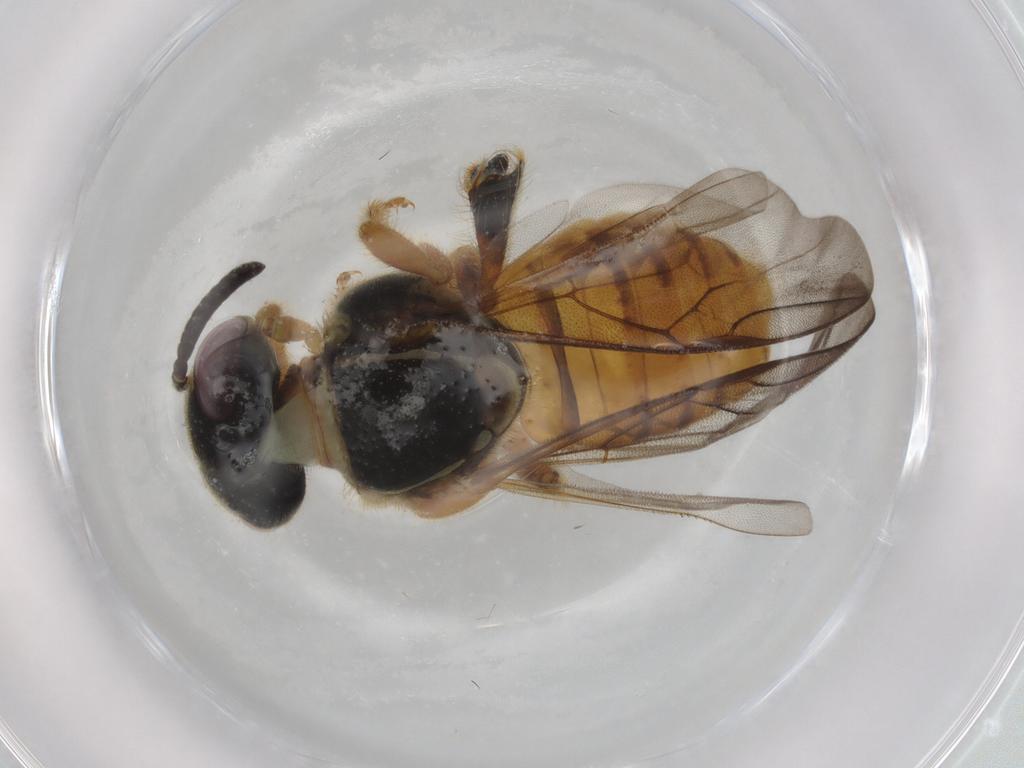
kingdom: Animalia
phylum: Arthropoda
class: Insecta
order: Hymenoptera
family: Apidae
